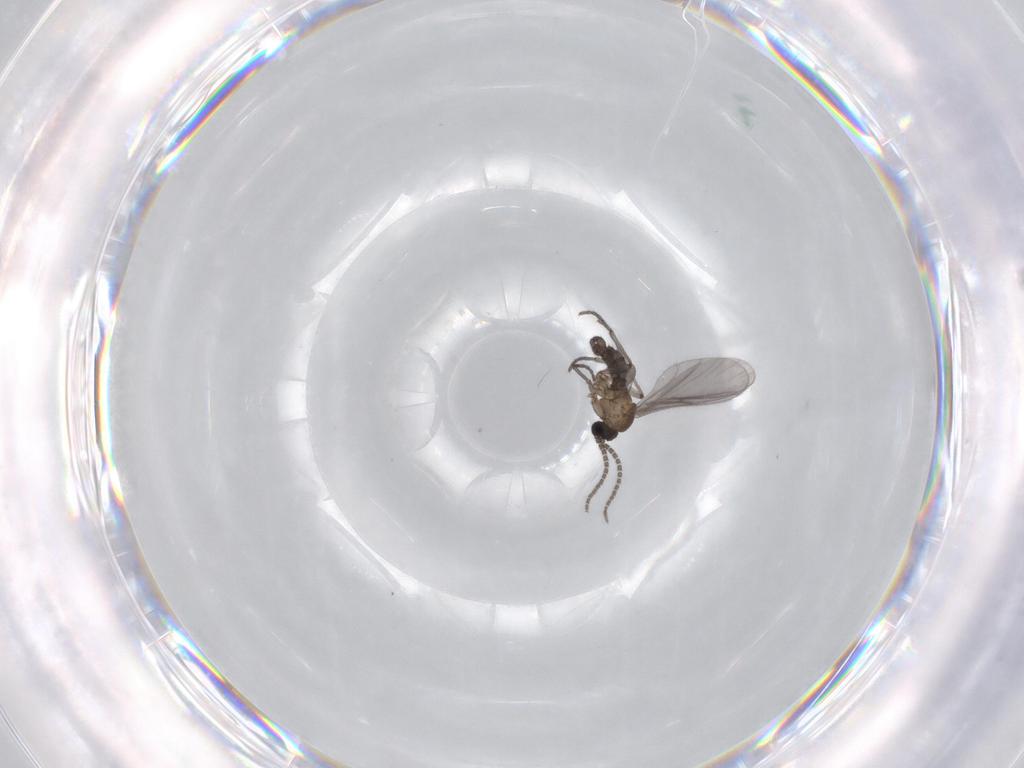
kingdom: Animalia
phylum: Arthropoda
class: Insecta
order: Diptera
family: Sciaridae
